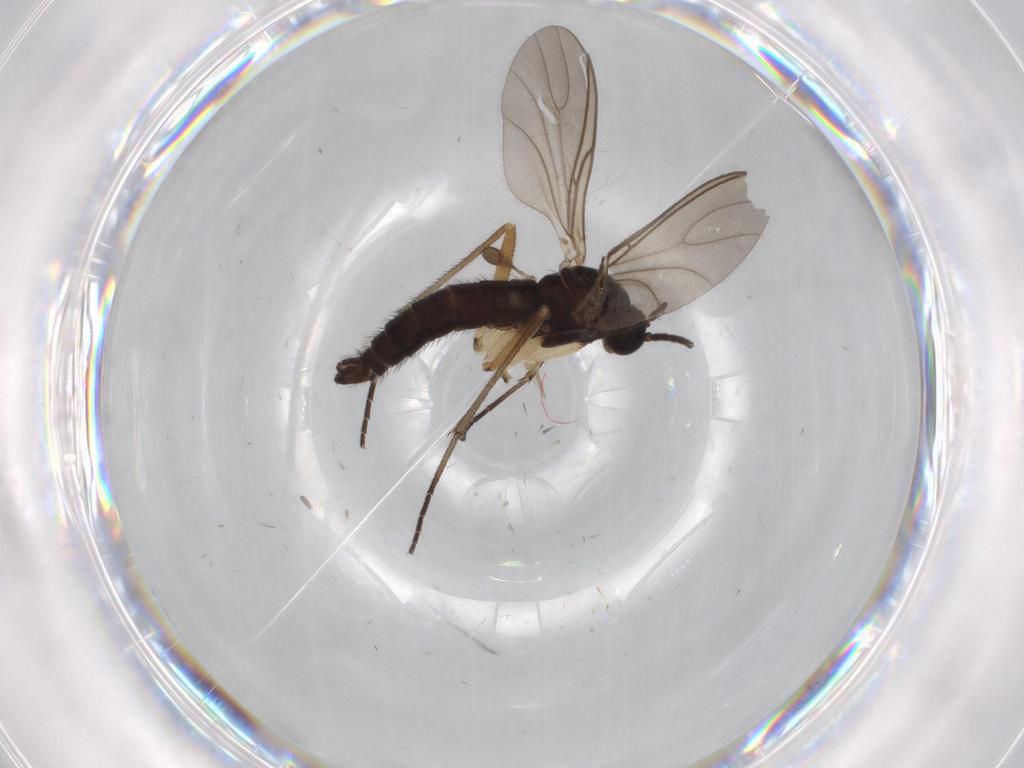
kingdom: Animalia
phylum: Arthropoda
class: Insecta
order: Diptera
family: Sciaridae
